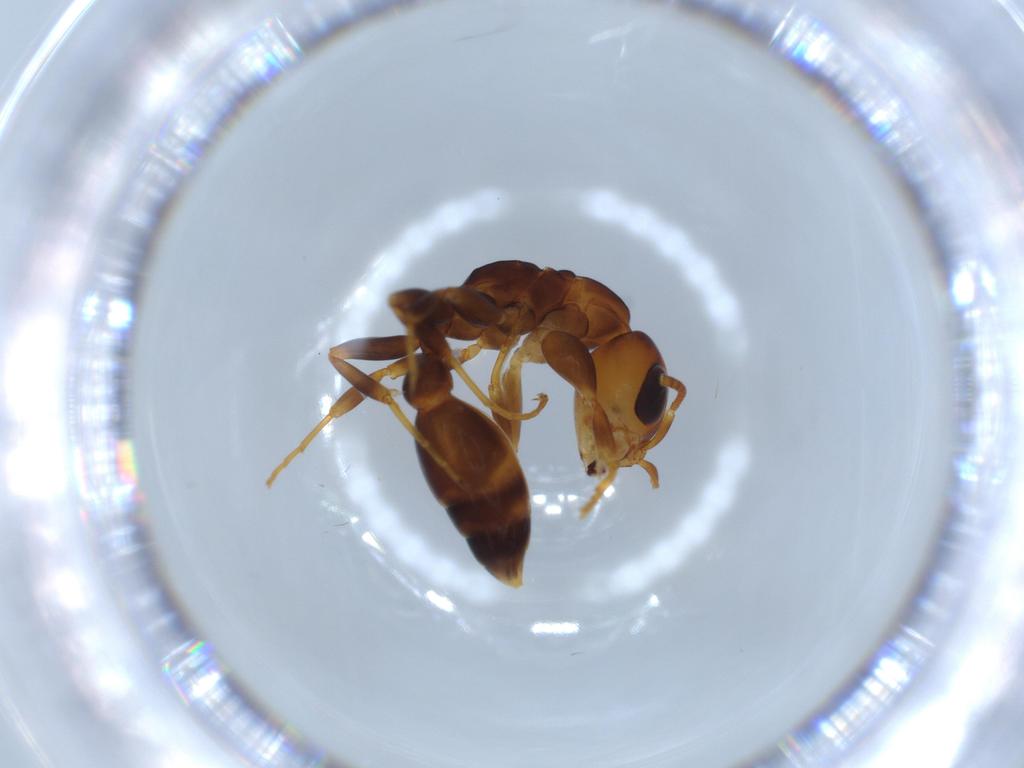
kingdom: Animalia
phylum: Arthropoda
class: Insecta
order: Hymenoptera
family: Formicidae
